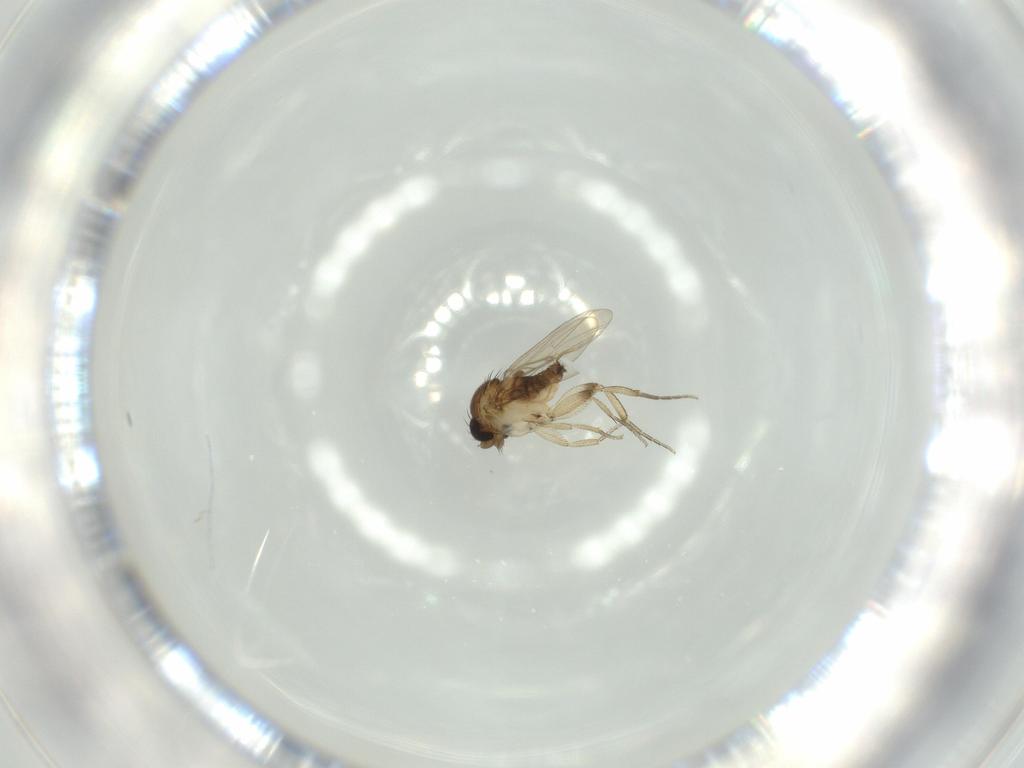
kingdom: Animalia
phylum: Arthropoda
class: Insecta
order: Diptera
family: Phoridae
